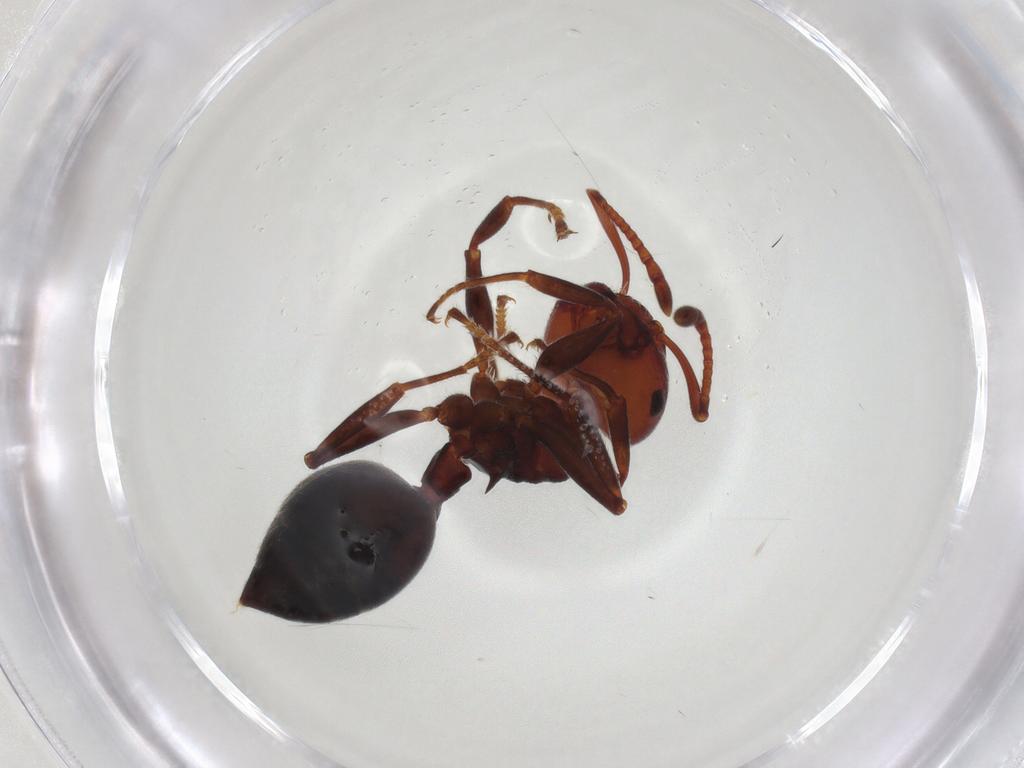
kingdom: Animalia
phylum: Arthropoda
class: Insecta
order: Hymenoptera
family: Formicidae
